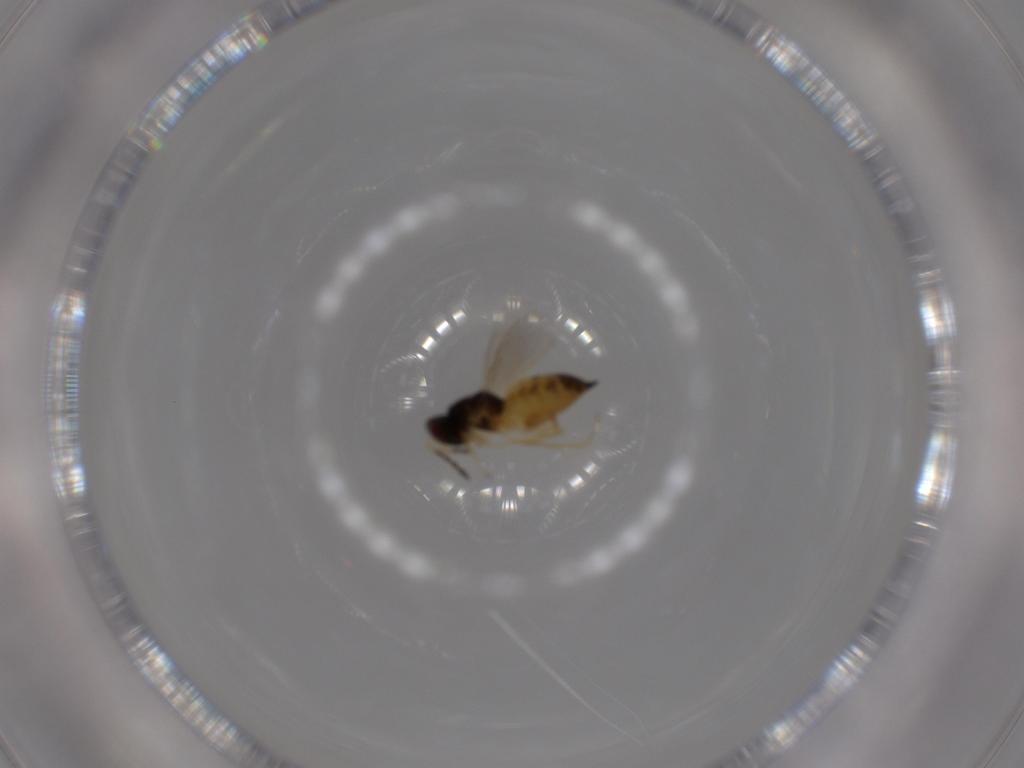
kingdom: Animalia
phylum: Arthropoda
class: Insecta
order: Hymenoptera
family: Eulophidae
